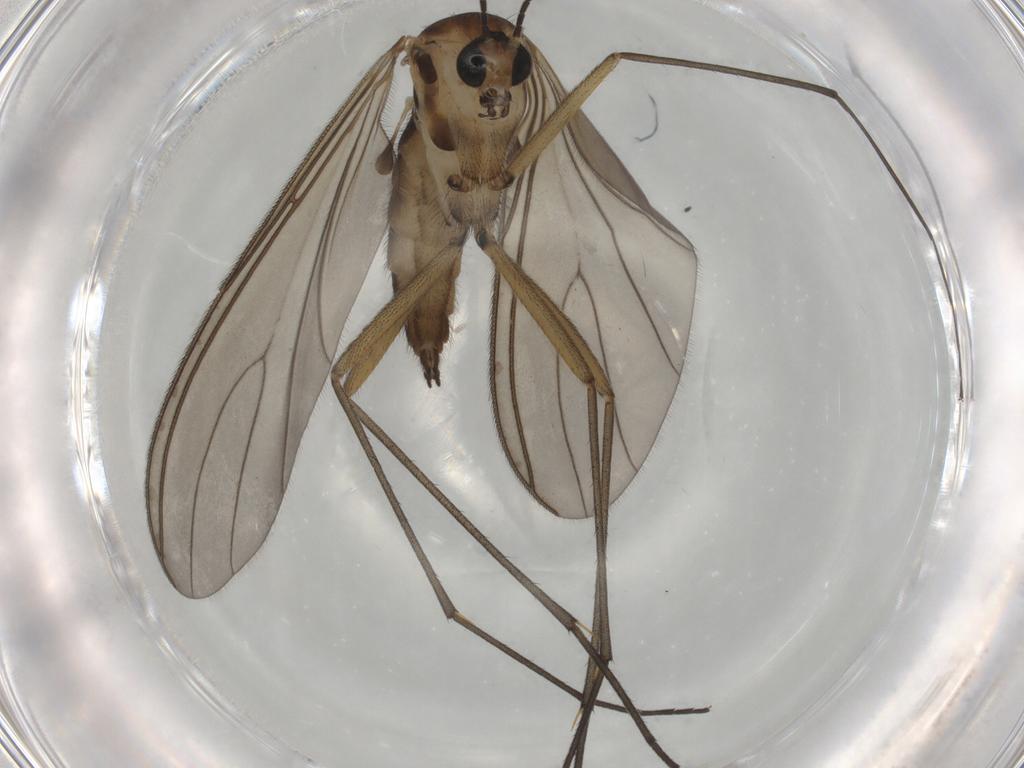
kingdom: Animalia
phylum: Arthropoda
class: Insecta
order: Diptera
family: Sciaridae
